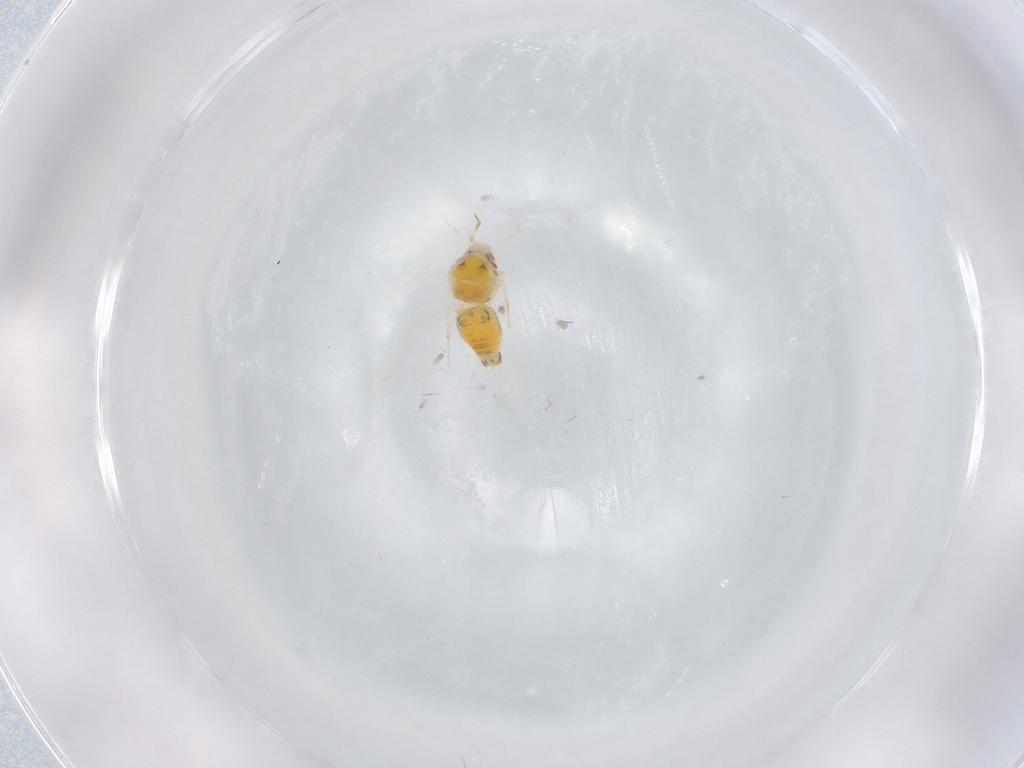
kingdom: Animalia
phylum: Arthropoda
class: Insecta
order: Hemiptera
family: Aleyrodidae
